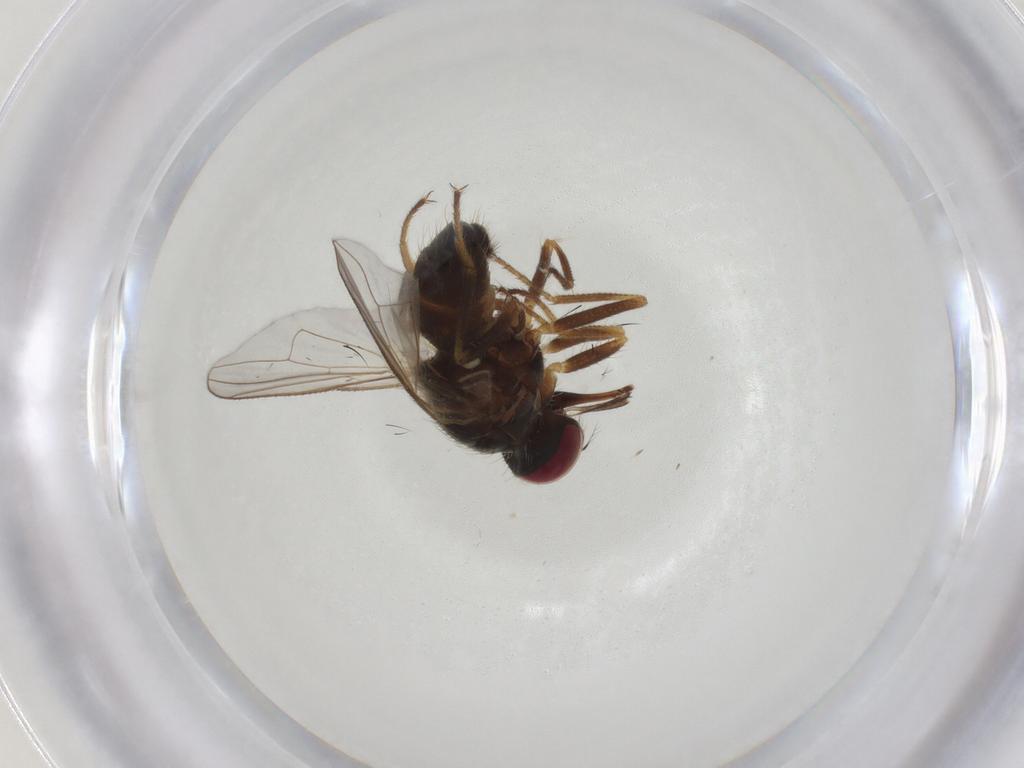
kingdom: Animalia
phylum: Arthropoda
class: Insecta
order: Diptera
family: Muscidae
